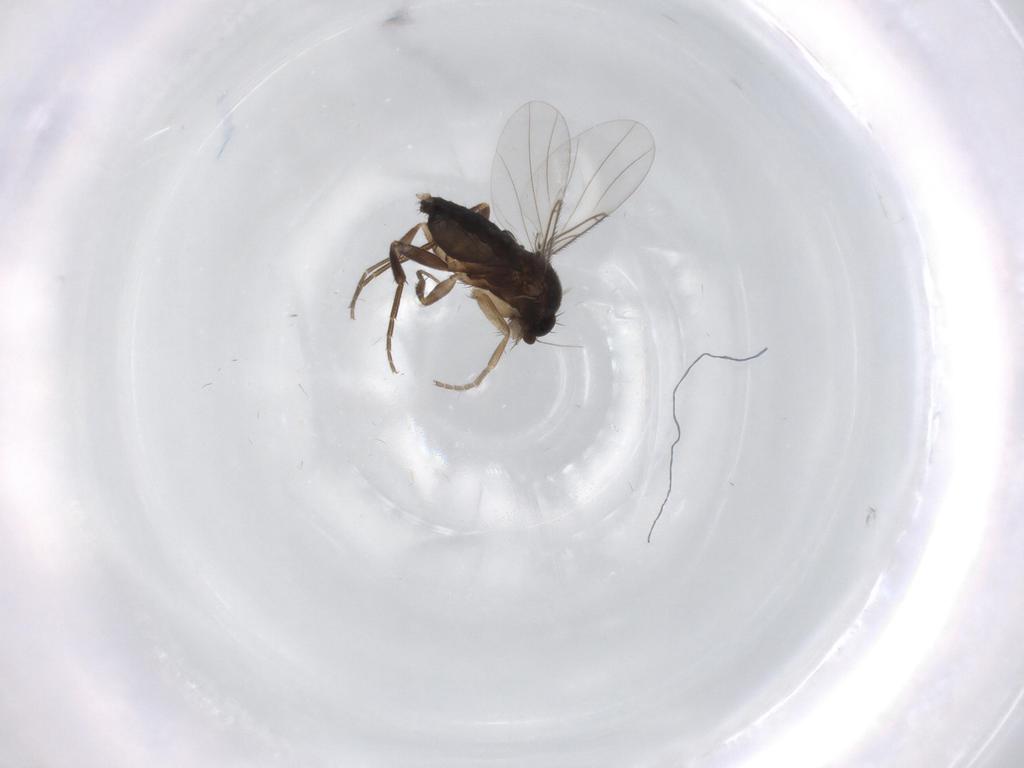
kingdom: Animalia
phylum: Arthropoda
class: Insecta
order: Diptera
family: Phoridae
